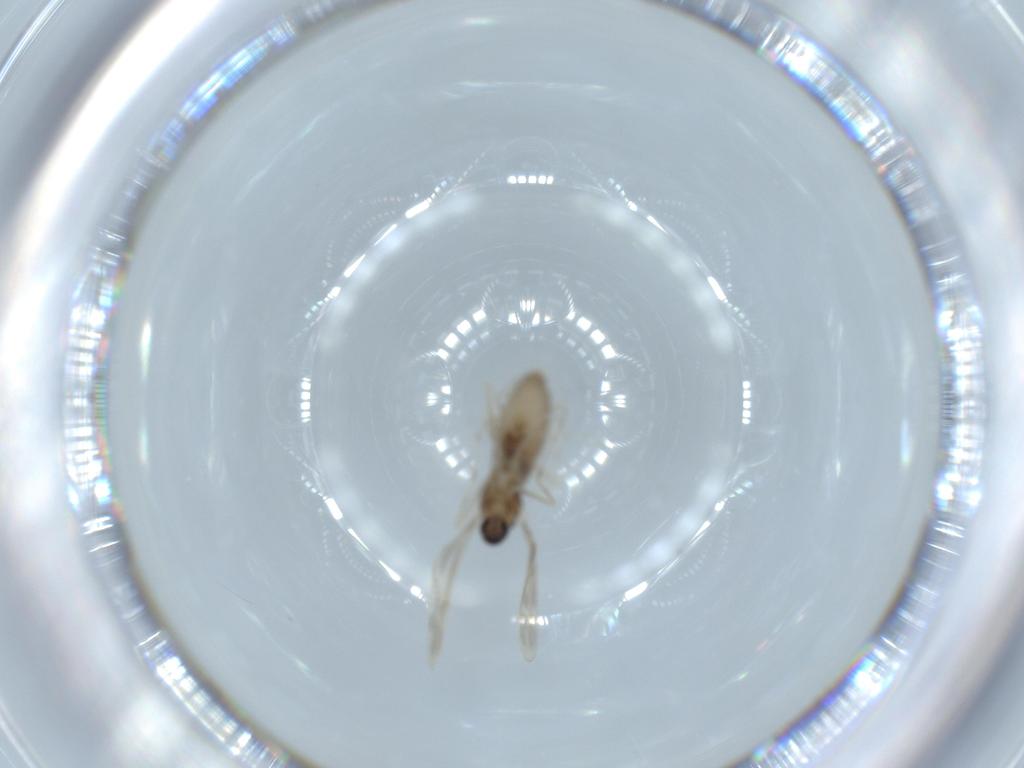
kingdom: Animalia
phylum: Arthropoda
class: Insecta
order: Diptera
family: Cecidomyiidae
